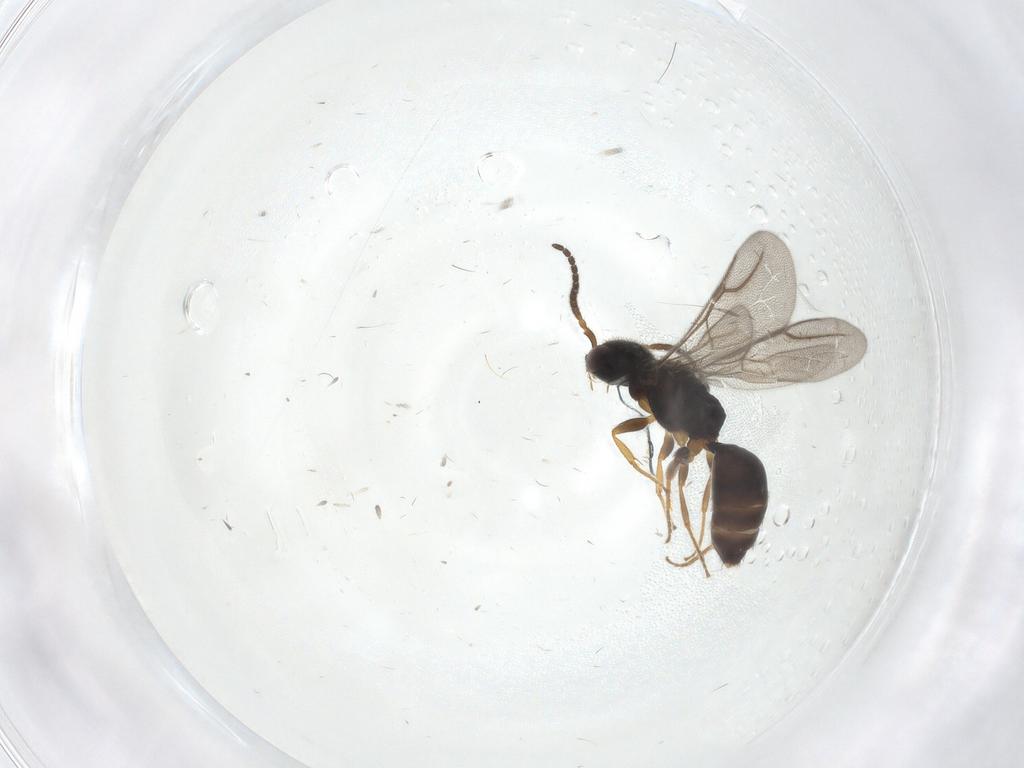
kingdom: Animalia
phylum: Arthropoda
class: Insecta
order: Hymenoptera
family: Bethylidae
